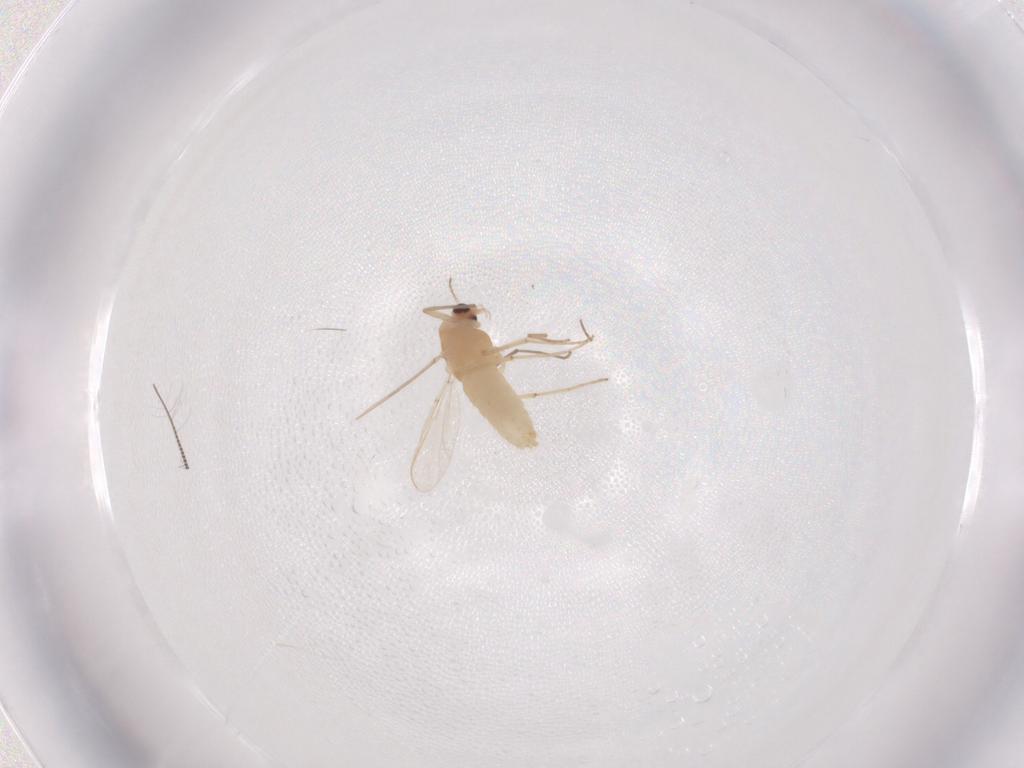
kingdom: Animalia
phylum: Arthropoda
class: Insecta
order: Diptera
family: Chironomidae
